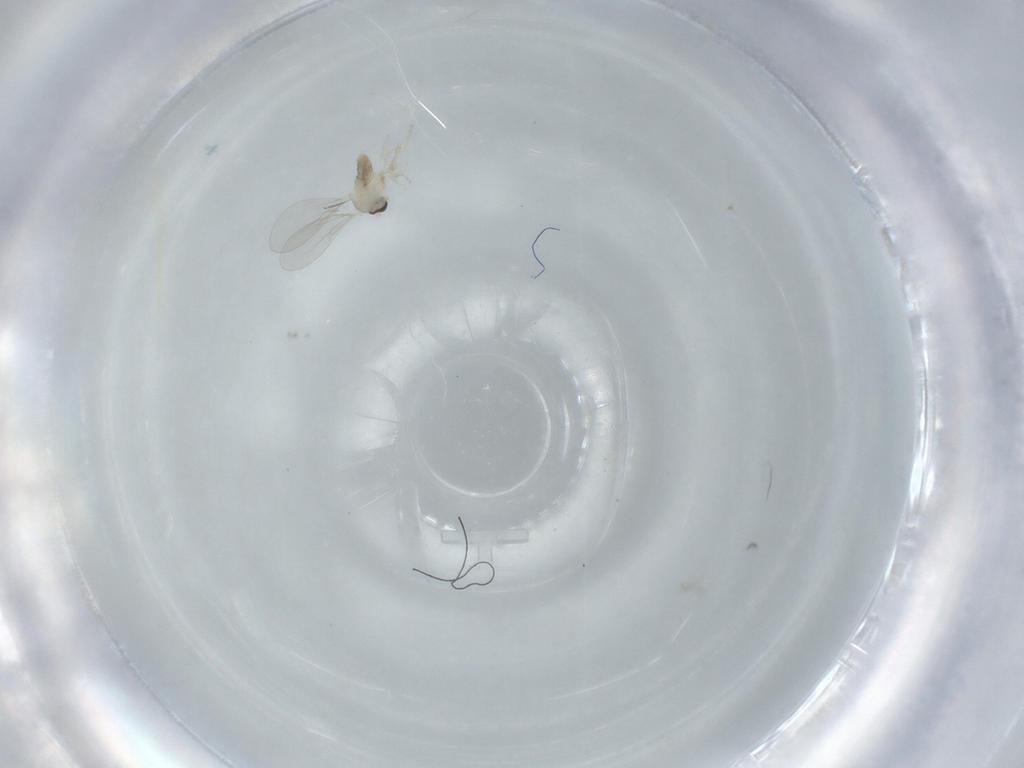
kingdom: Animalia
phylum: Arthropoda
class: Insecta
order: Diptera
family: Cecidomyiidae
